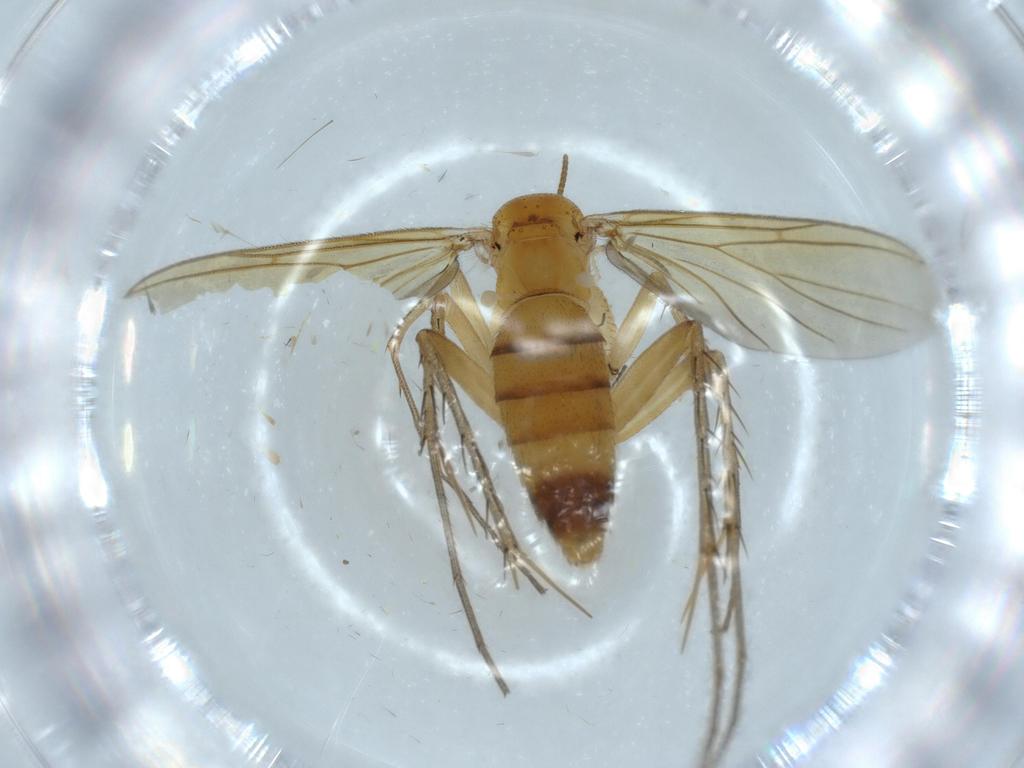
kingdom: Animalia
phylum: Arthropoda
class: Insecta
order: Diptera
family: Mycetophilidae
